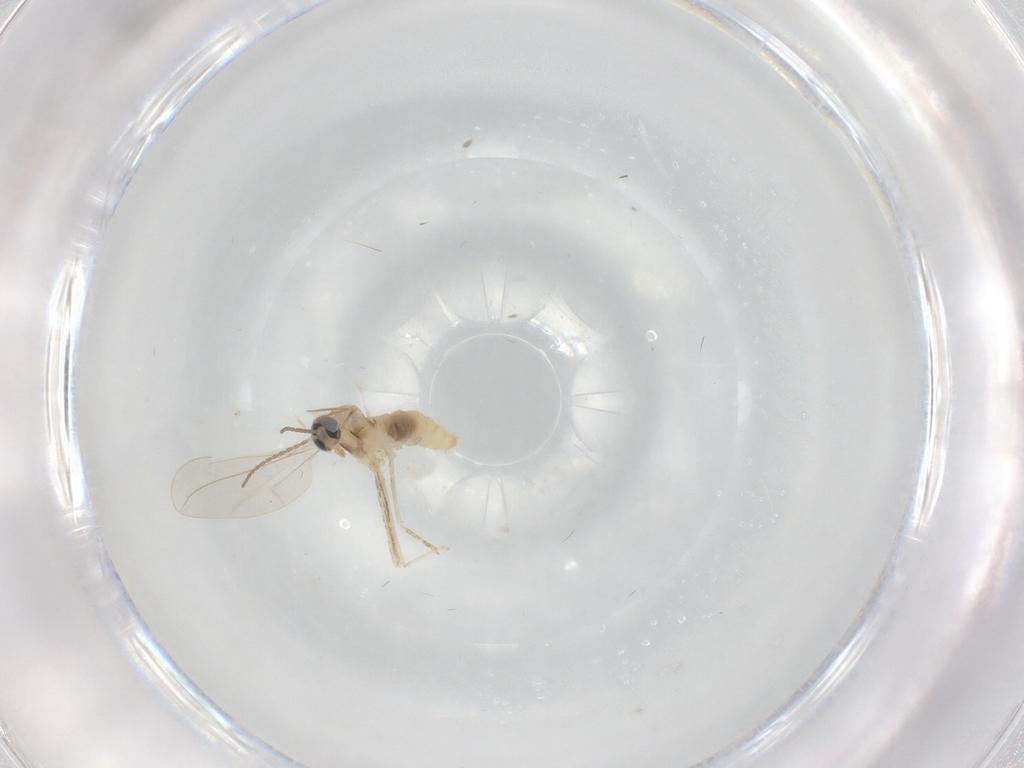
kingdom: Animalia
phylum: Arthropoda
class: Insecta
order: Diptera
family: Cecidomyiidae
